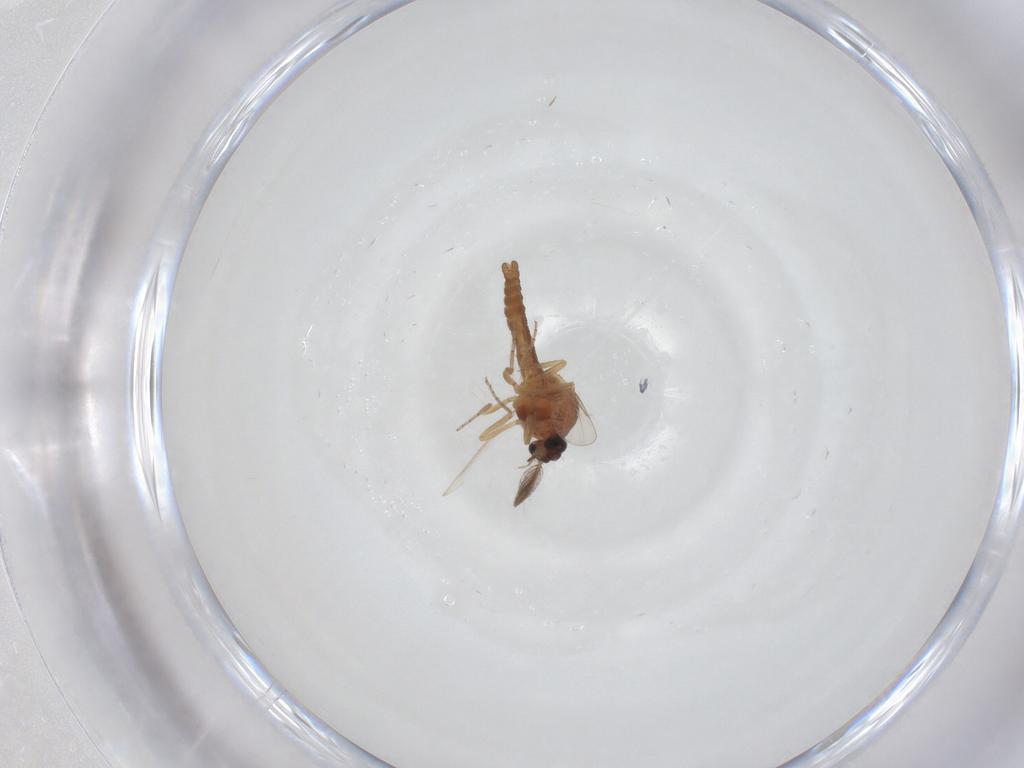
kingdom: Animalia
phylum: Arthropoda
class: Insecta
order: Diptera
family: Ceratopogonidae
